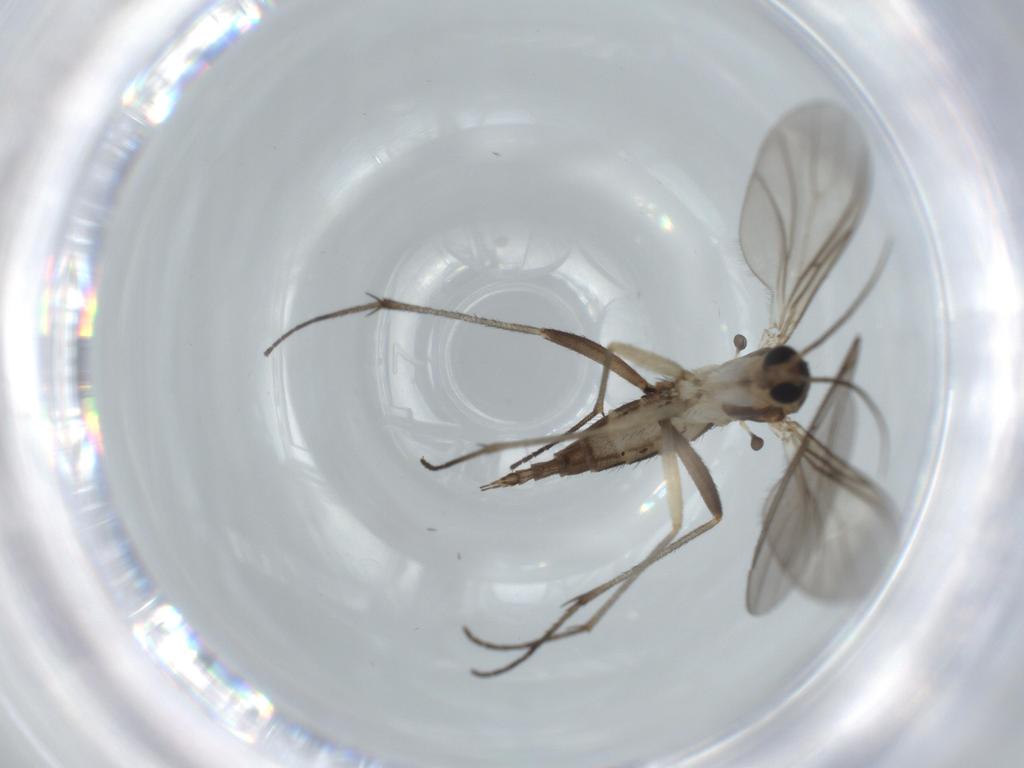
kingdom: Animalia
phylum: Arthropoda
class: Insecta
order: Diptera
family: Sciaridae
